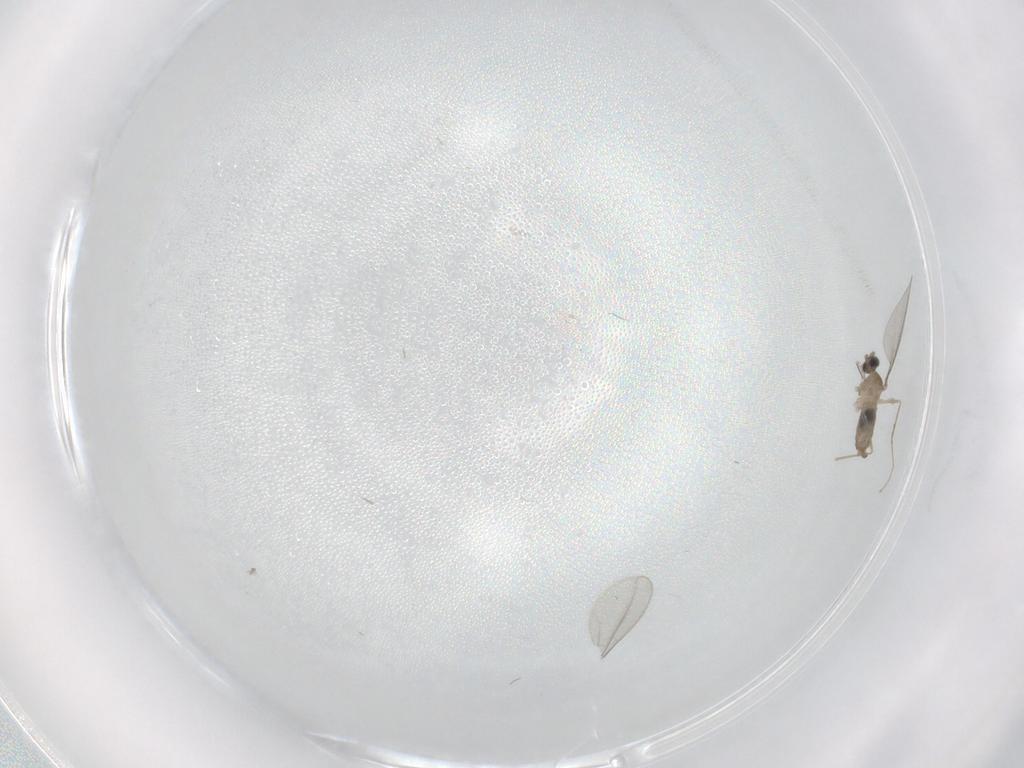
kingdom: Animalia
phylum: Arthropoda
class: Insecta
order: Diptera
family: Cecidomyiidae
